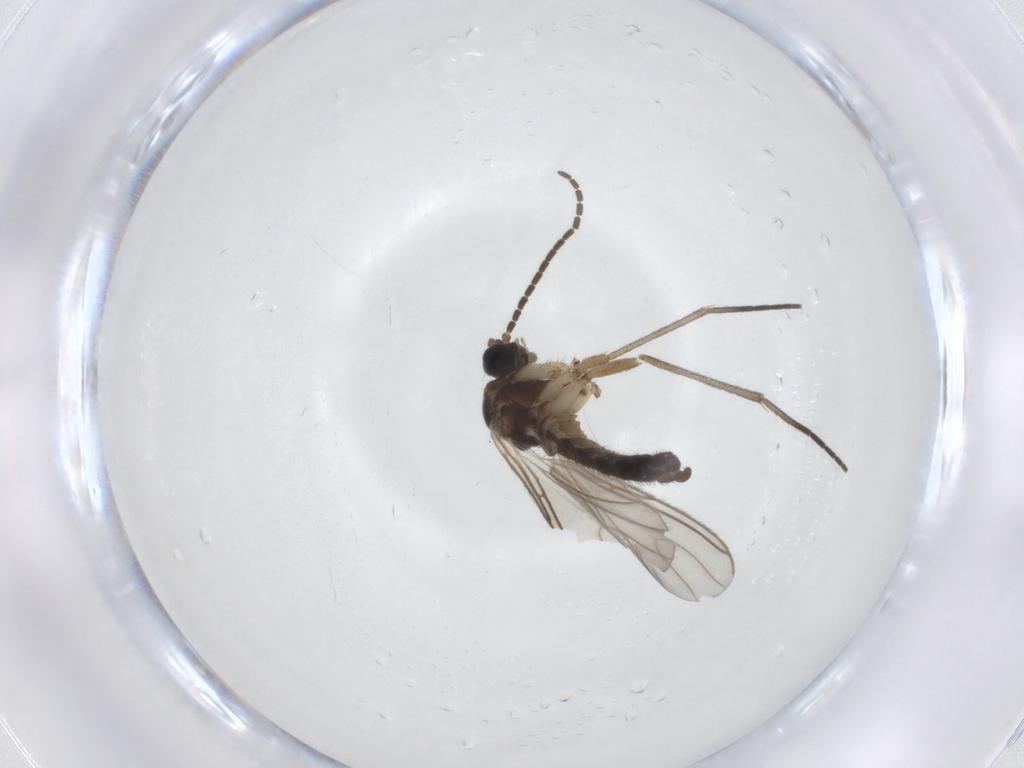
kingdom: Animalia
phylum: Arthropoda
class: Insecta
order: Diptera
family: Sciaridae
